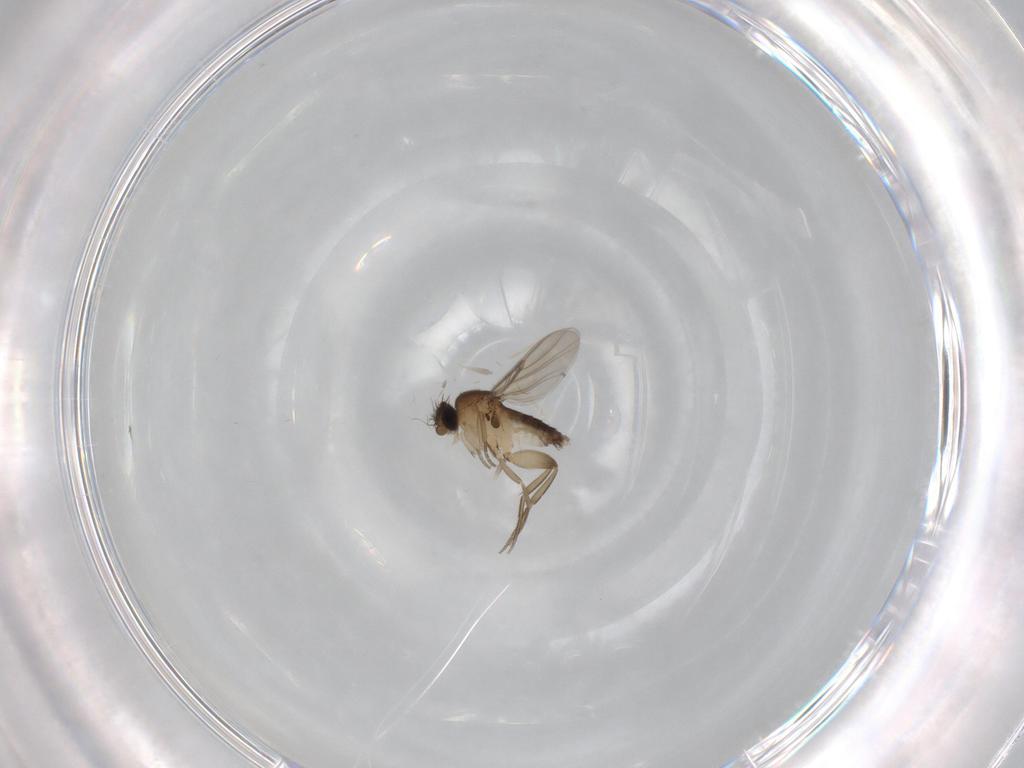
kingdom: Animalia
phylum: Arthropoda
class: Insecta
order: Diptera
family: Phoridae
